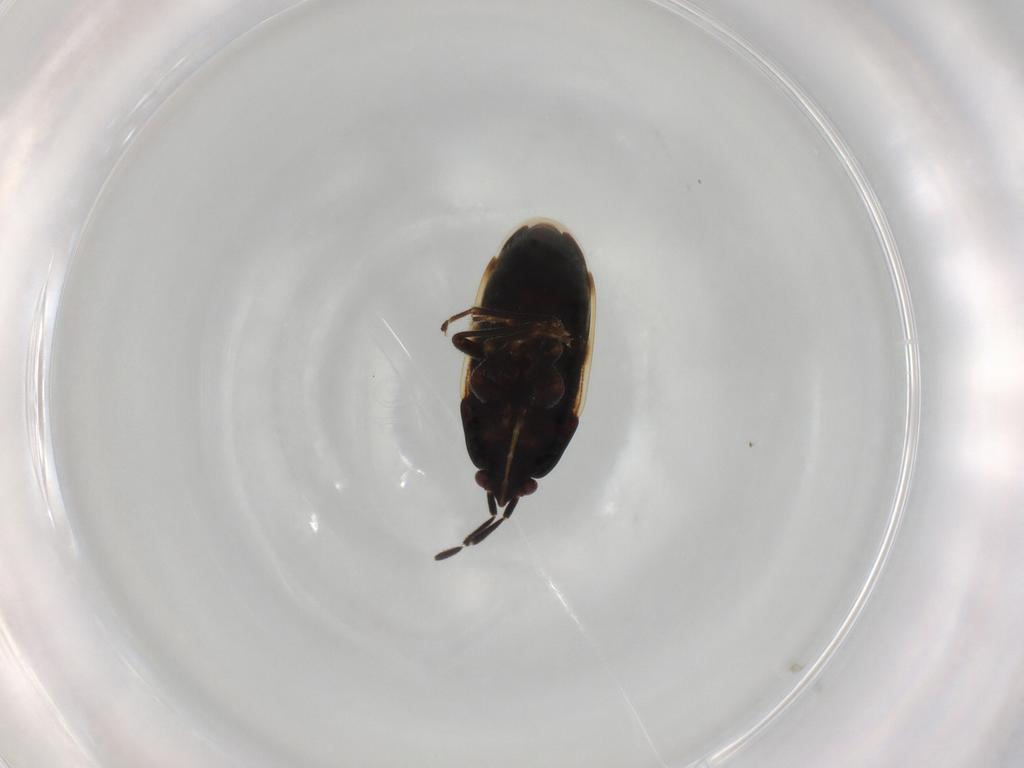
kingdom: Animalia
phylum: Arthropoda
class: Insecta
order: Hemiptera
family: Rhyparochromidae
